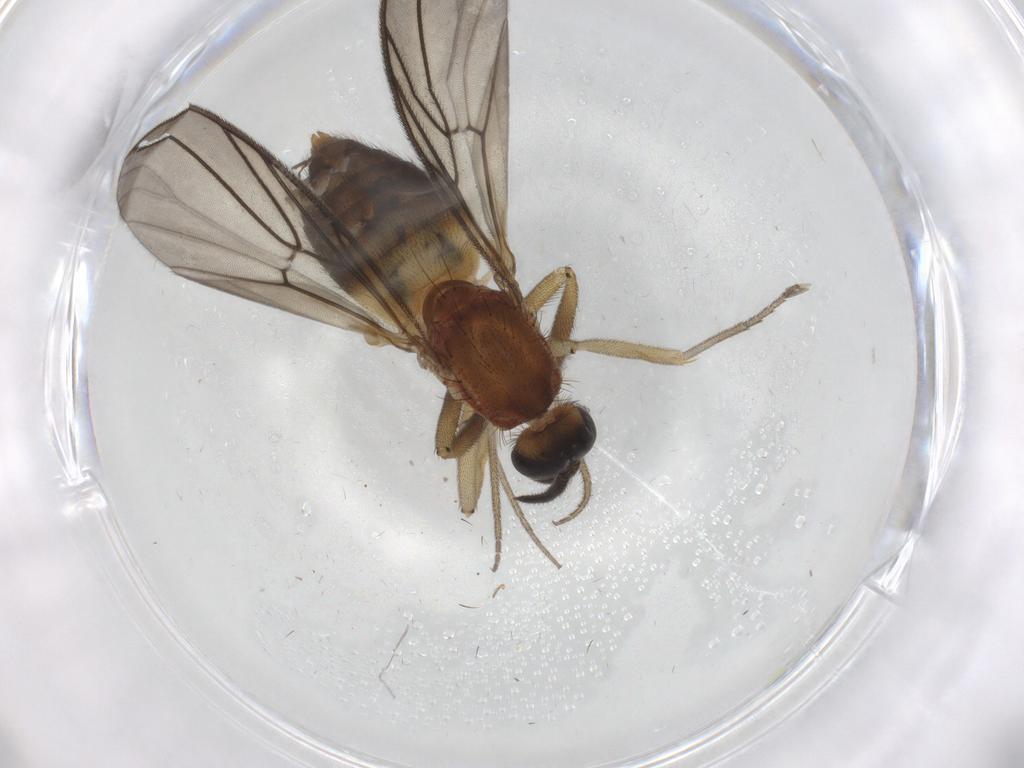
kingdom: Animalia
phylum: Arthropoda
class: Insecta
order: Diptera
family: Anisopodidae
